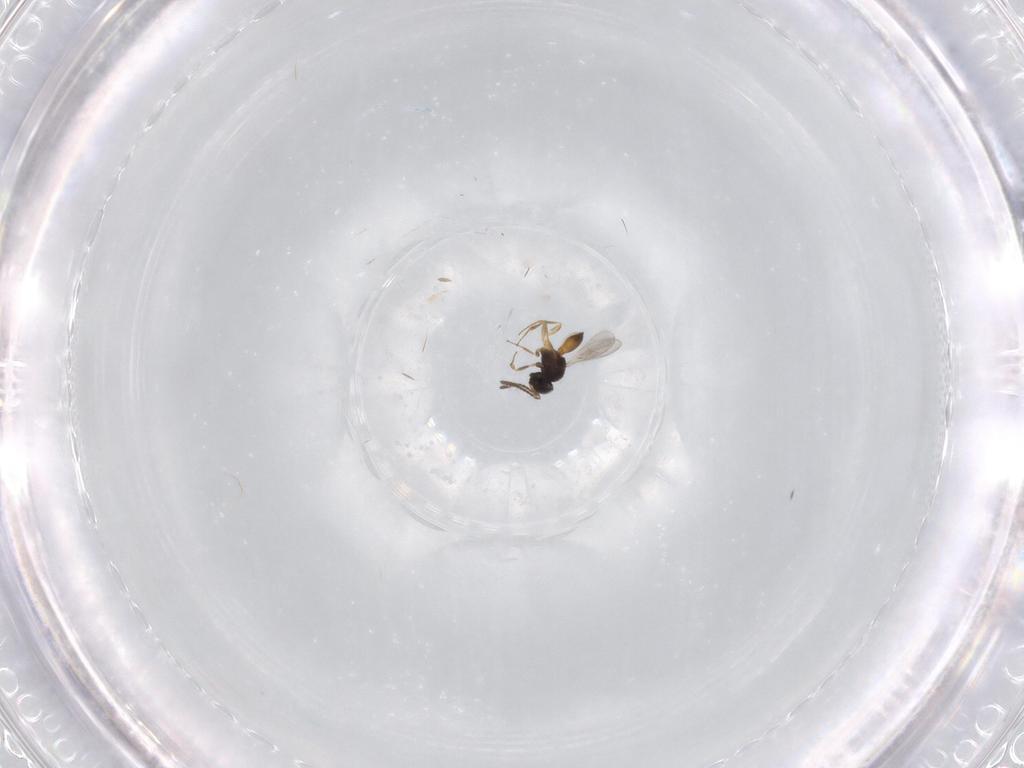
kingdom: Animalia
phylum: Arthropoda
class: Insecta
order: Hymenoptera
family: Scelionidae
